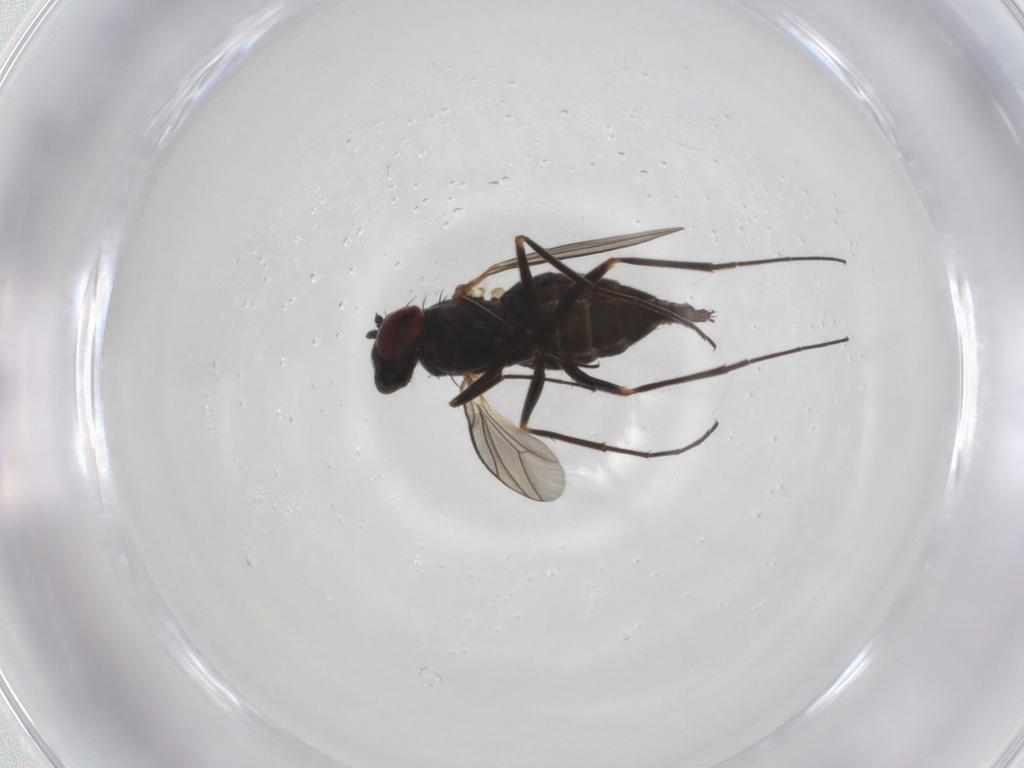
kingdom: Animalia
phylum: Arthropoda
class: Insecta
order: Diptera
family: Dolichopodidae
